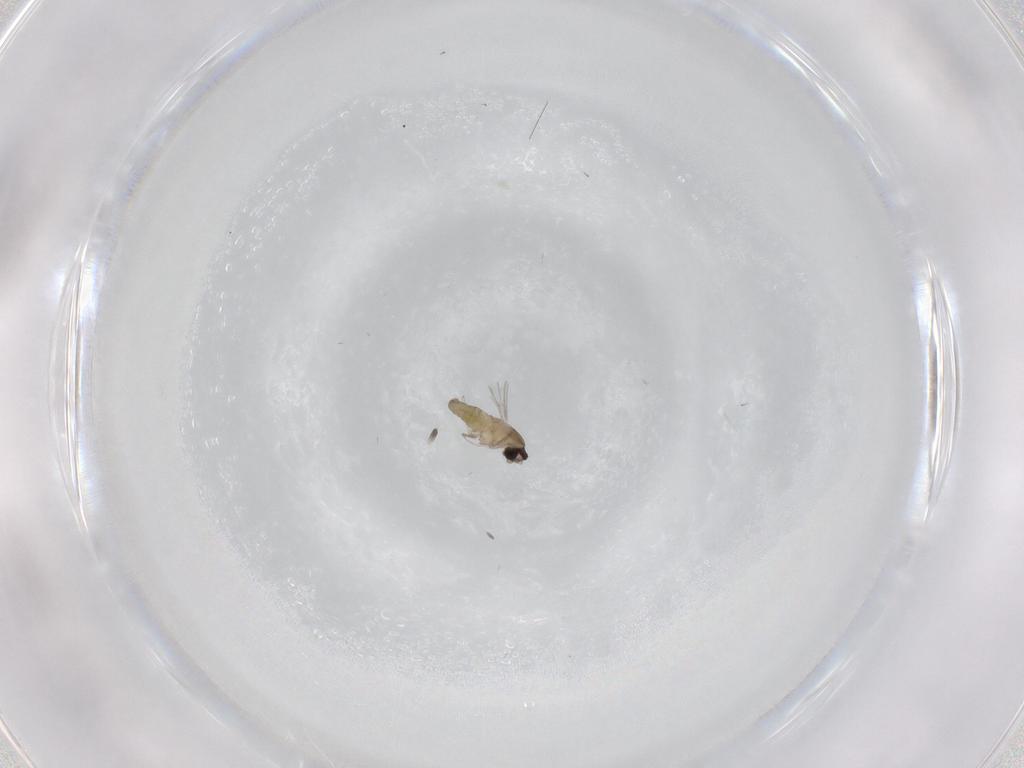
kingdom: Animalia
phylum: Arthropoda
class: Insecta
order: Diptera
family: Cecidomyiidae
